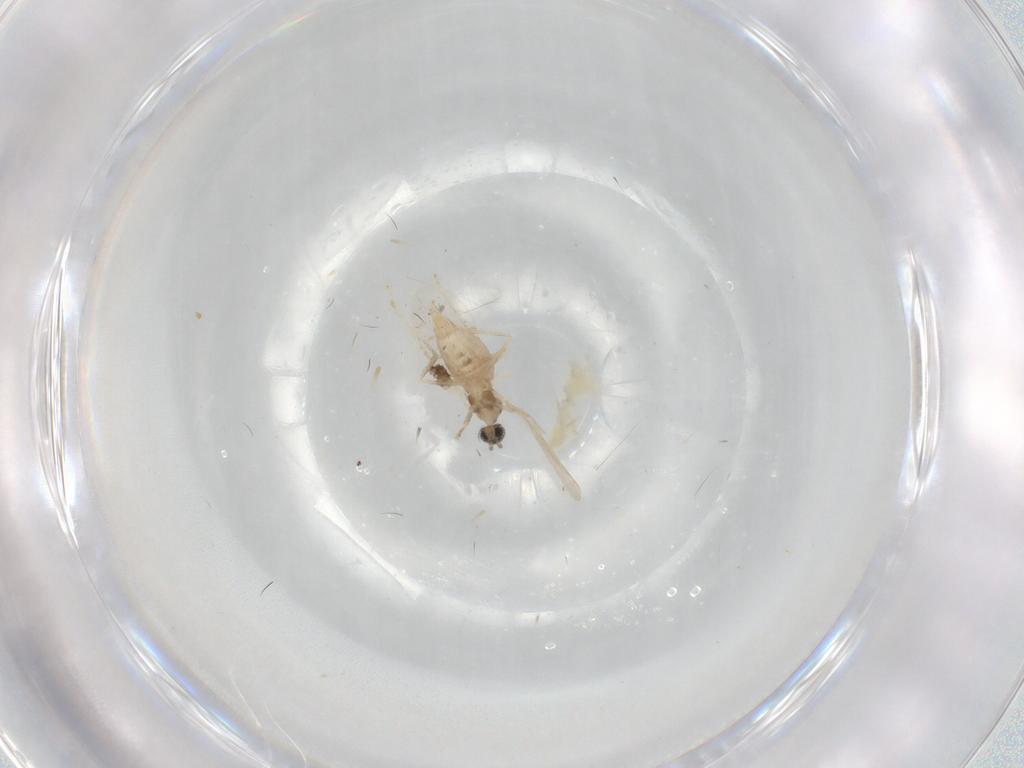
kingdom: Animalia
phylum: Arthropoda
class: Insecta
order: Diptera
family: Cecidomyiidae
